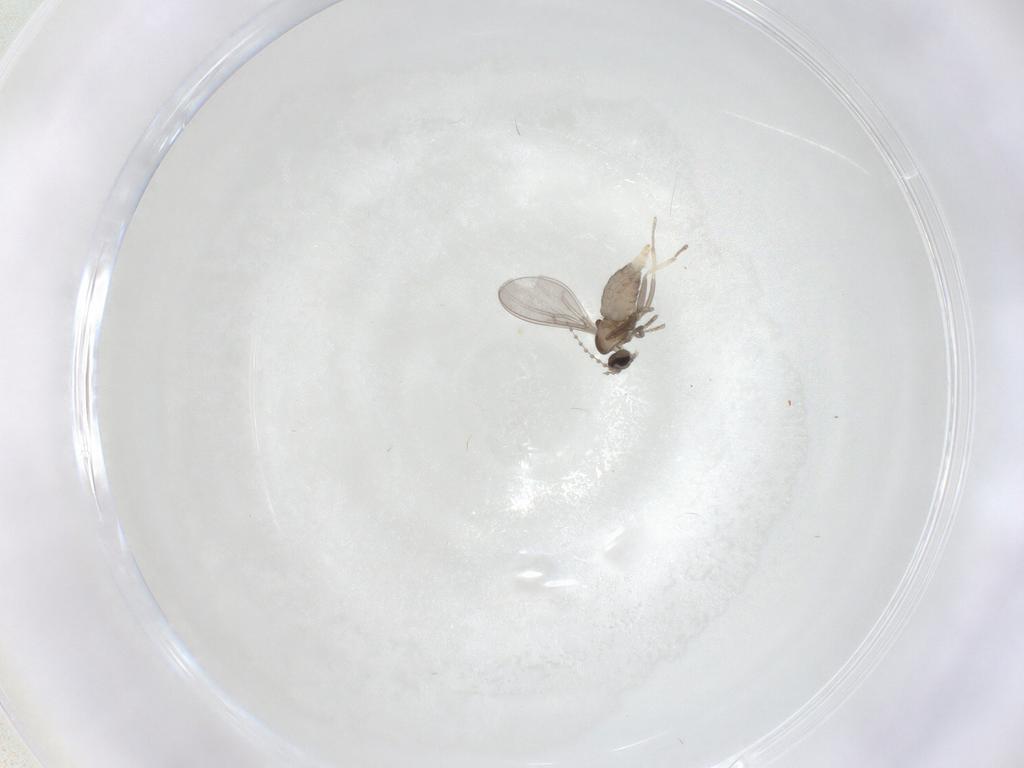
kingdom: Animalia
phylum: Arthropoda
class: Insecta
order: Diptera
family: Cecidomyiidae
